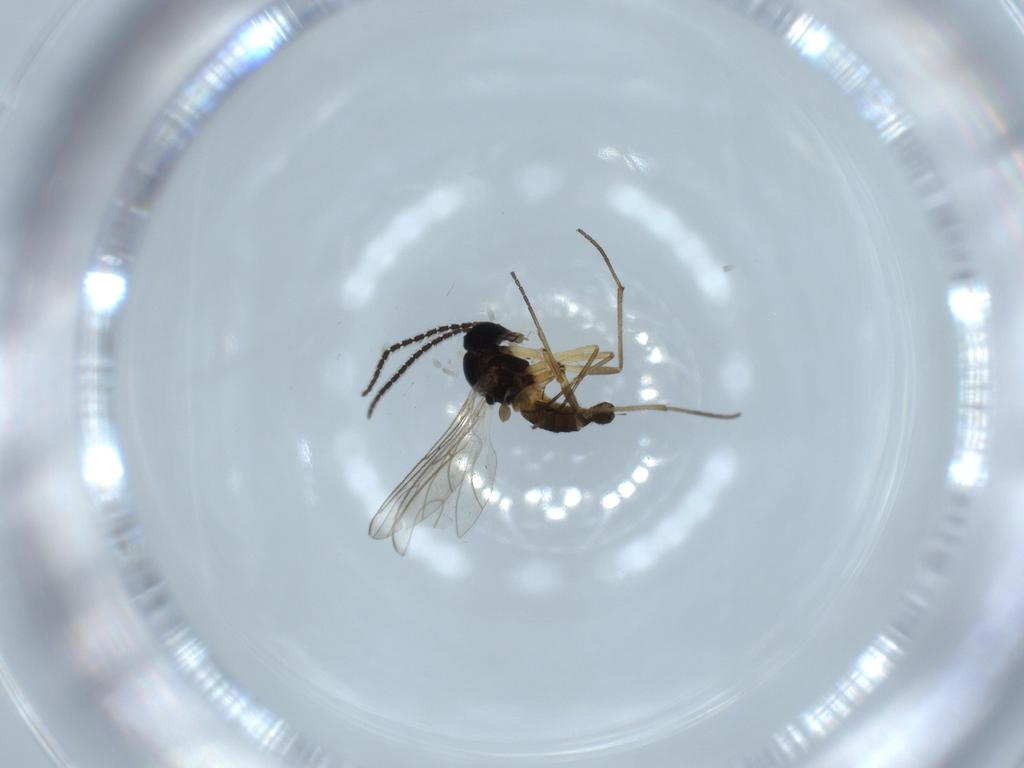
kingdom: Animalia
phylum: Arthropoda
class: Insecta
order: Diptera
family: Sciaridae
